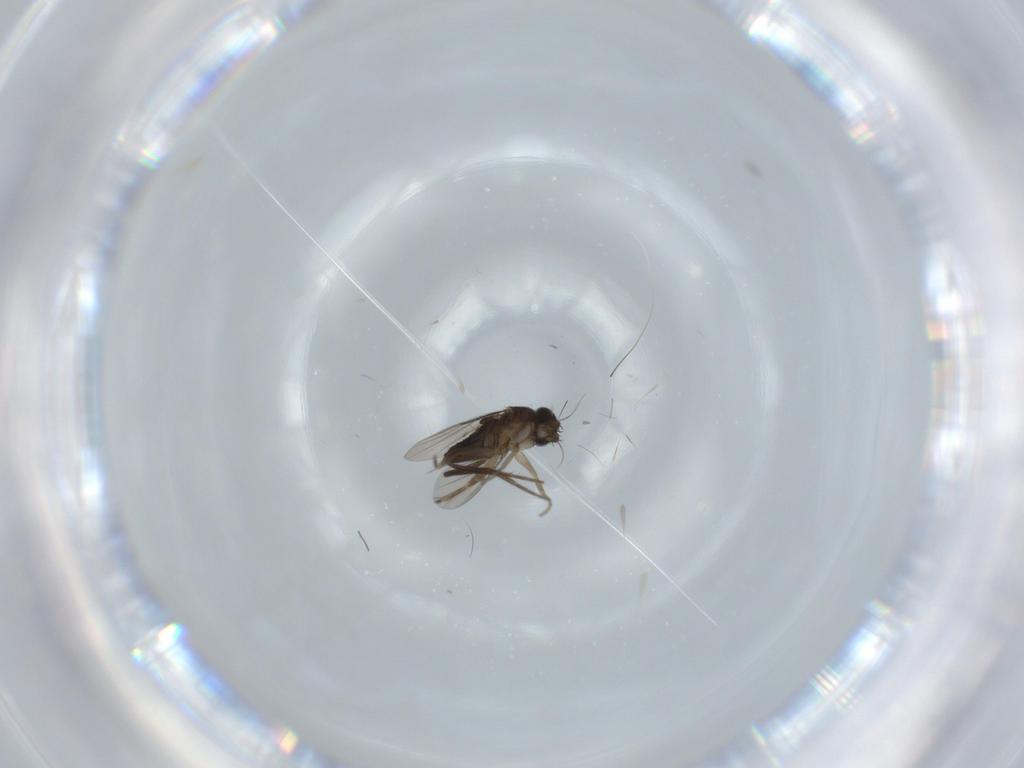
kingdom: Animalia
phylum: Arthropoda
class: Insecta
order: Diptera
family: Phoridae
